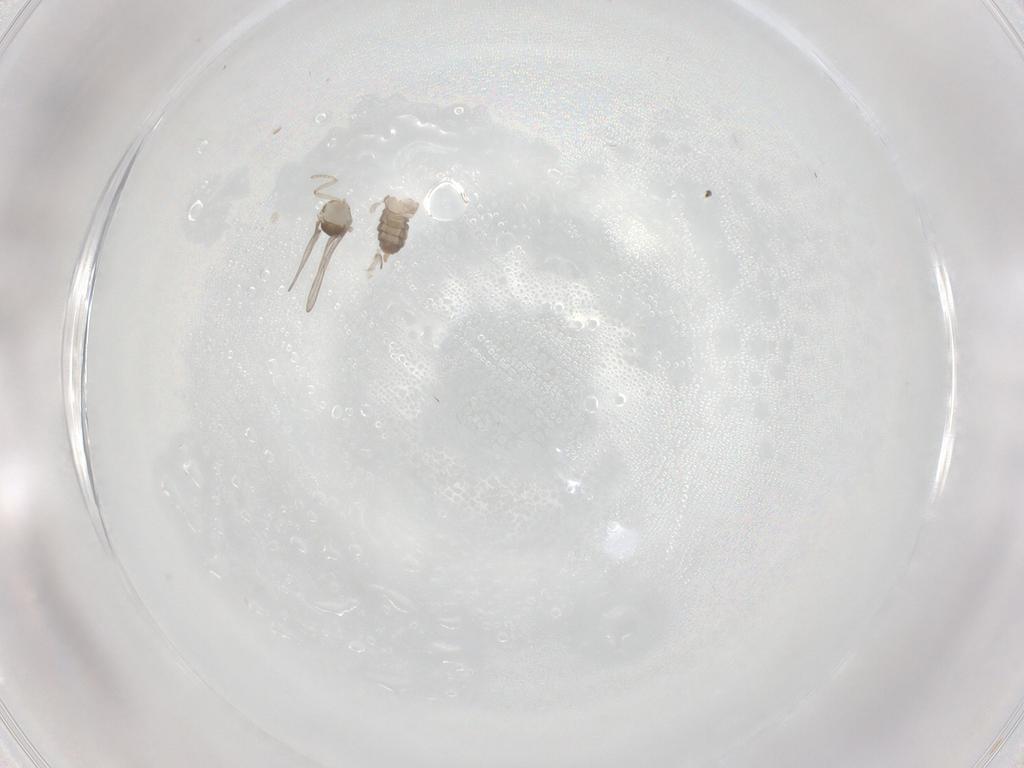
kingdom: Animalia
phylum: Arthropoda
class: Insecta
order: Diptera
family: Cecidomyiidae
